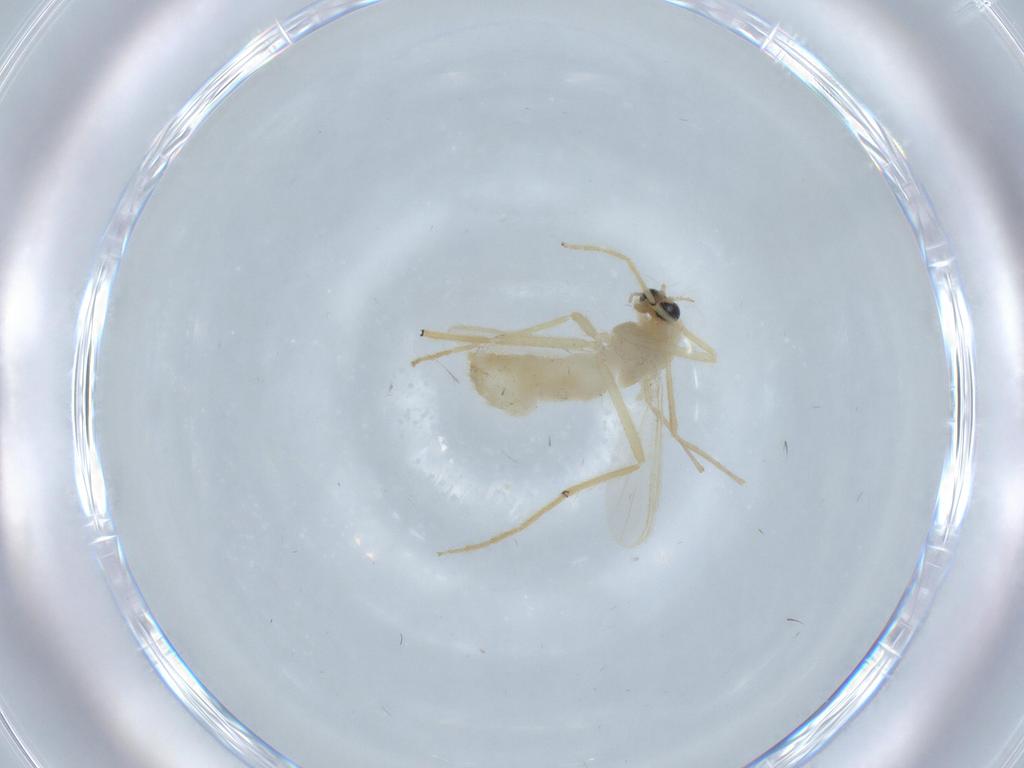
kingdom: Animalia
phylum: Arthropoda
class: Insecta
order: Diptera
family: Chironomidae
